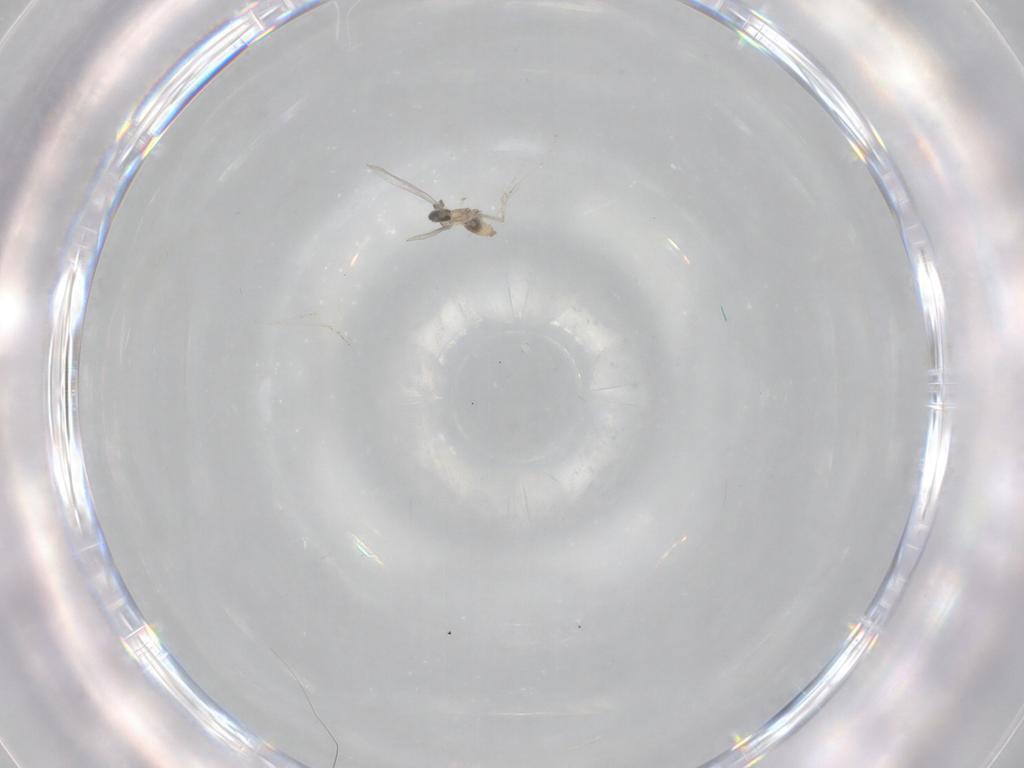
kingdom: Animalia
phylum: Arthropoda
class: Insecta
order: Diptera
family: Cecidomyiidae
